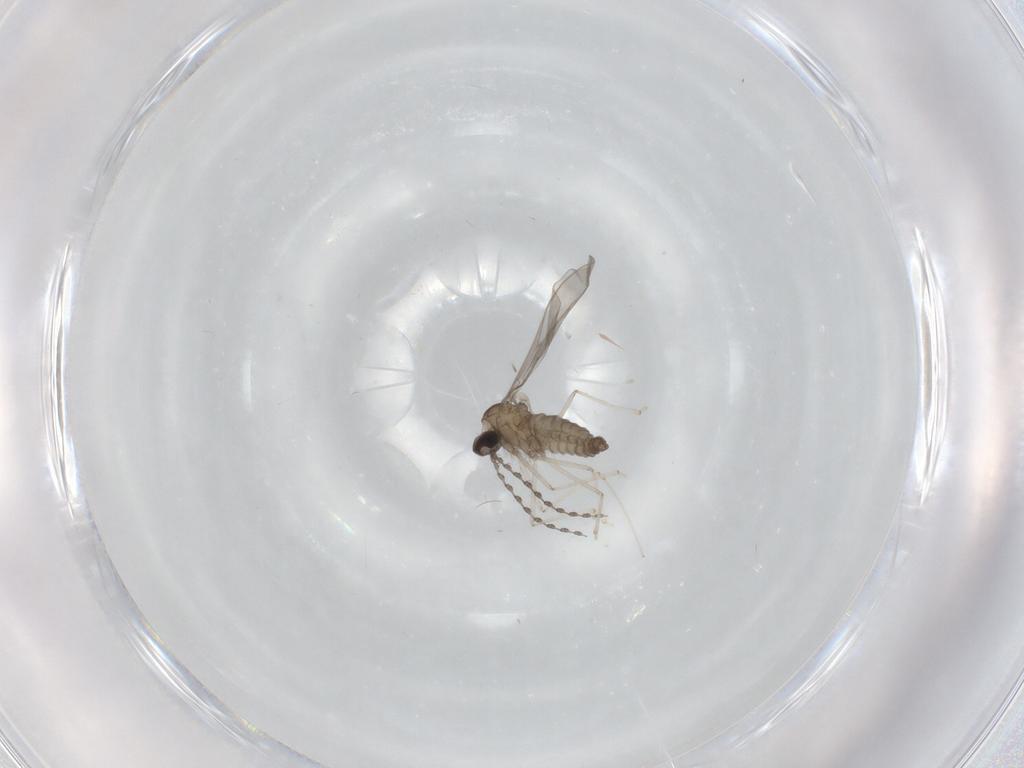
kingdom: Animalia
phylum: Arthropoda
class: Insecta
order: Diptera
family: Cecidomyiidae
